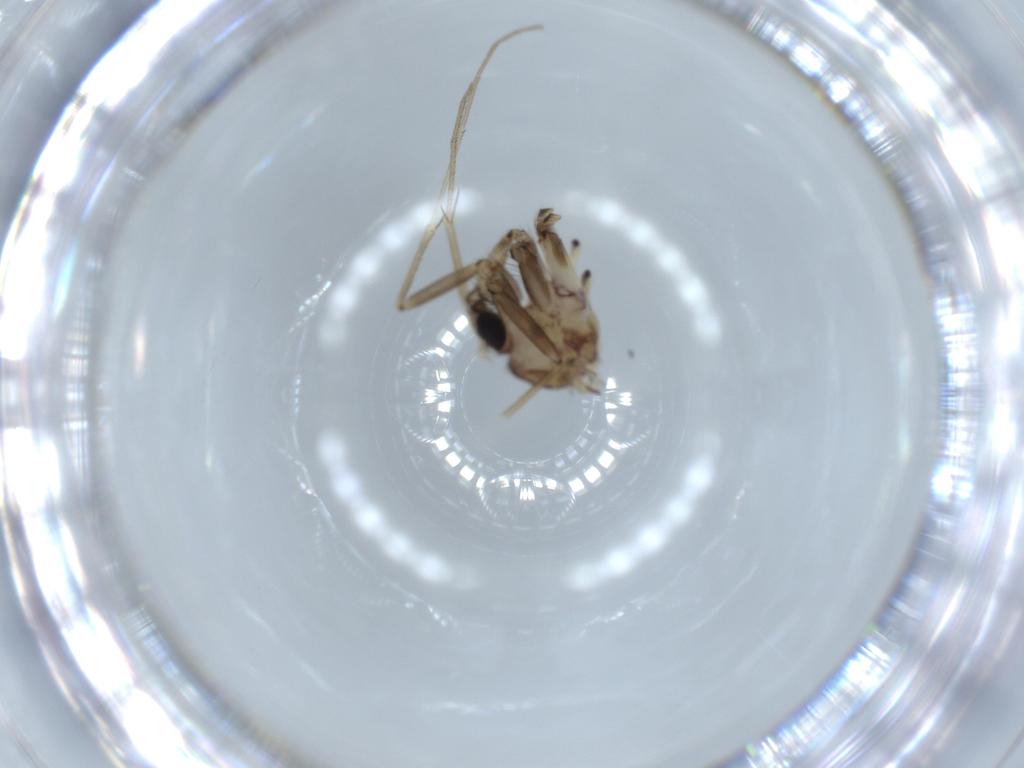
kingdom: Animalia
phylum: Arthropoda
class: Insecta
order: Diptera
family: Mycetophilidae
